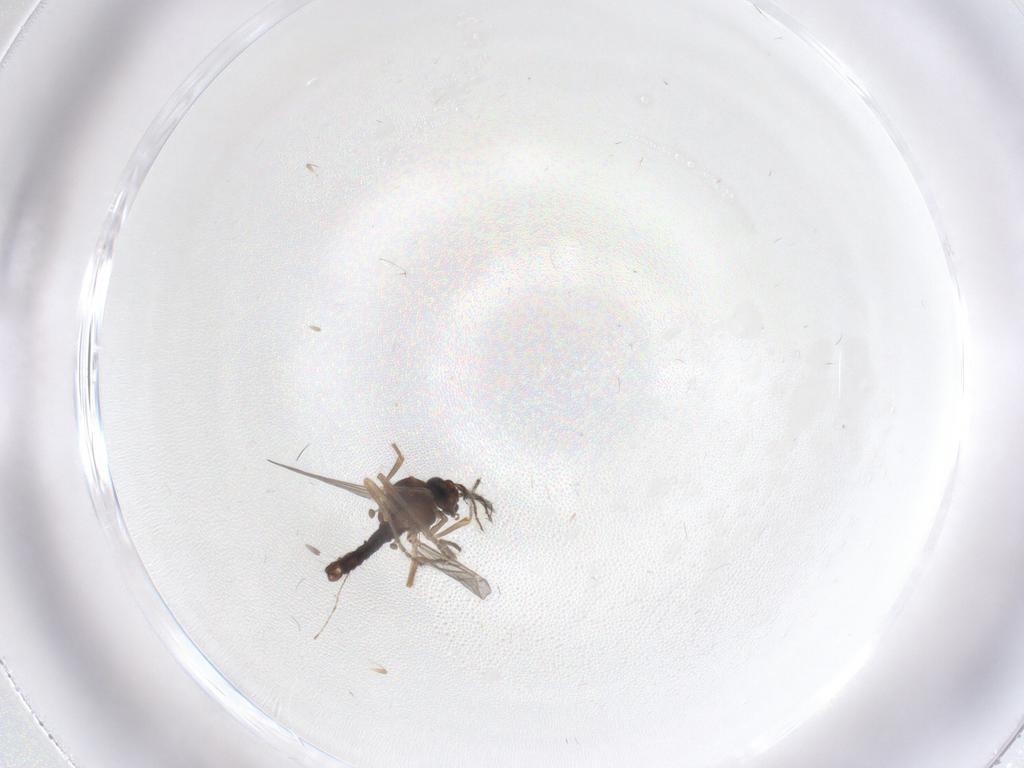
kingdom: Animalia
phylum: Arthropoda
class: Insecta
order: Diptera
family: Ceratopogonidae
